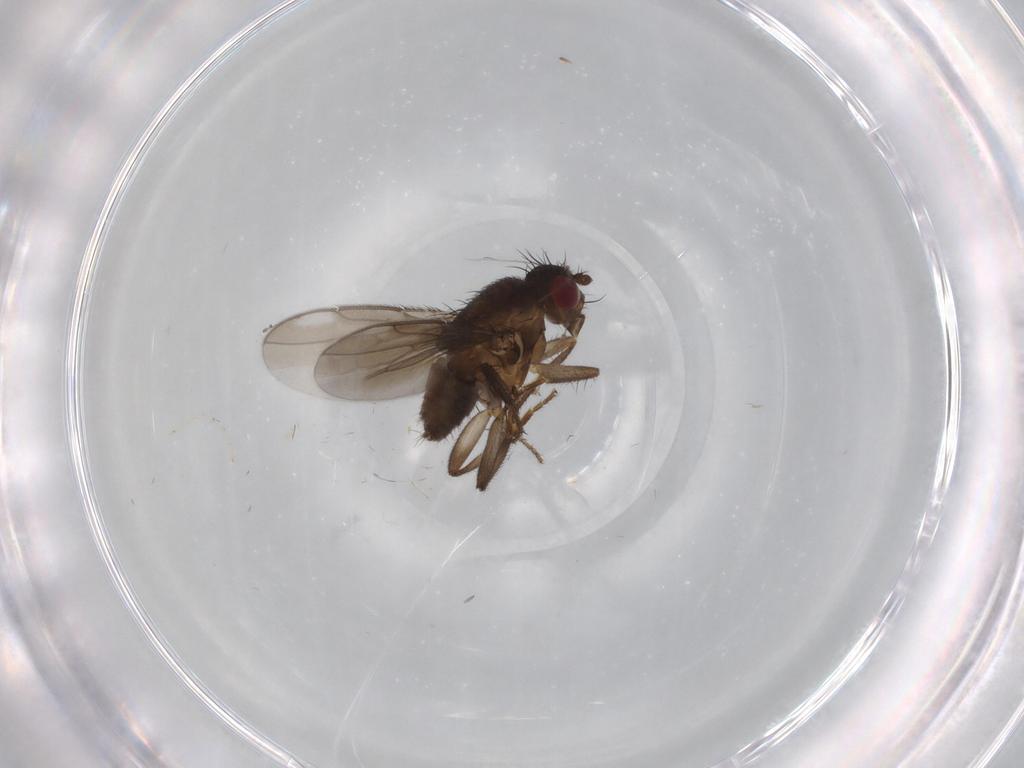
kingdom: Animalia
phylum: Arthropoda
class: Insecta
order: Diptera
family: Cecidomyiidae
